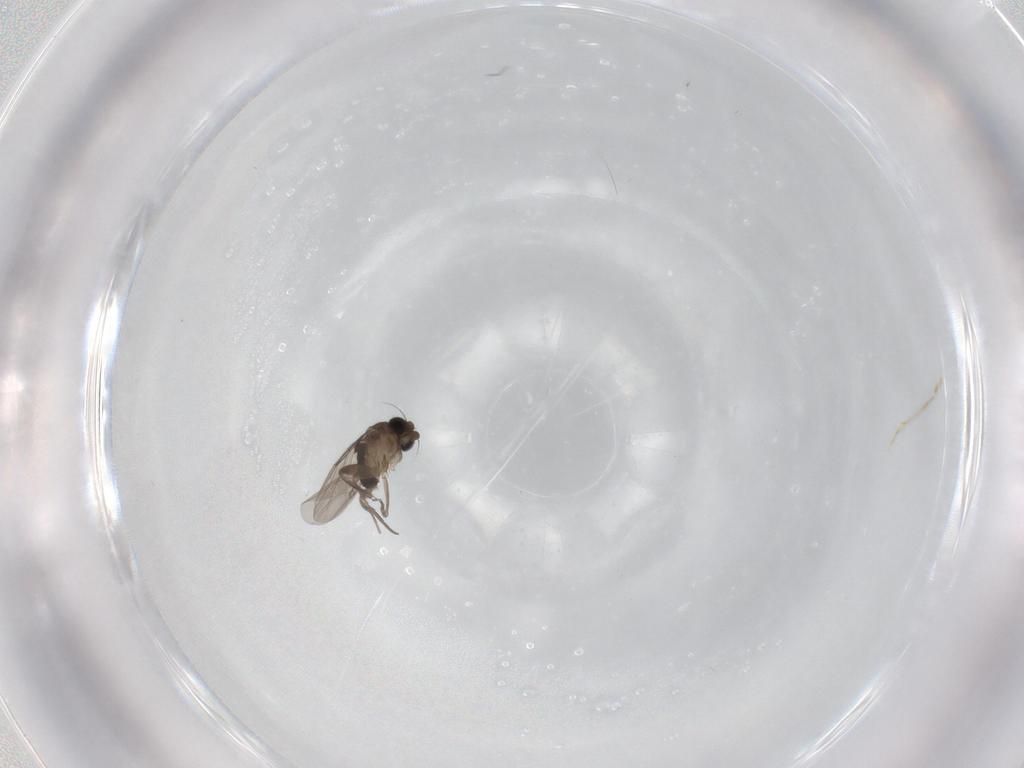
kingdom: Animalia
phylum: Arthropoda
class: Insecta
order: Diptera
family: Phoridae
